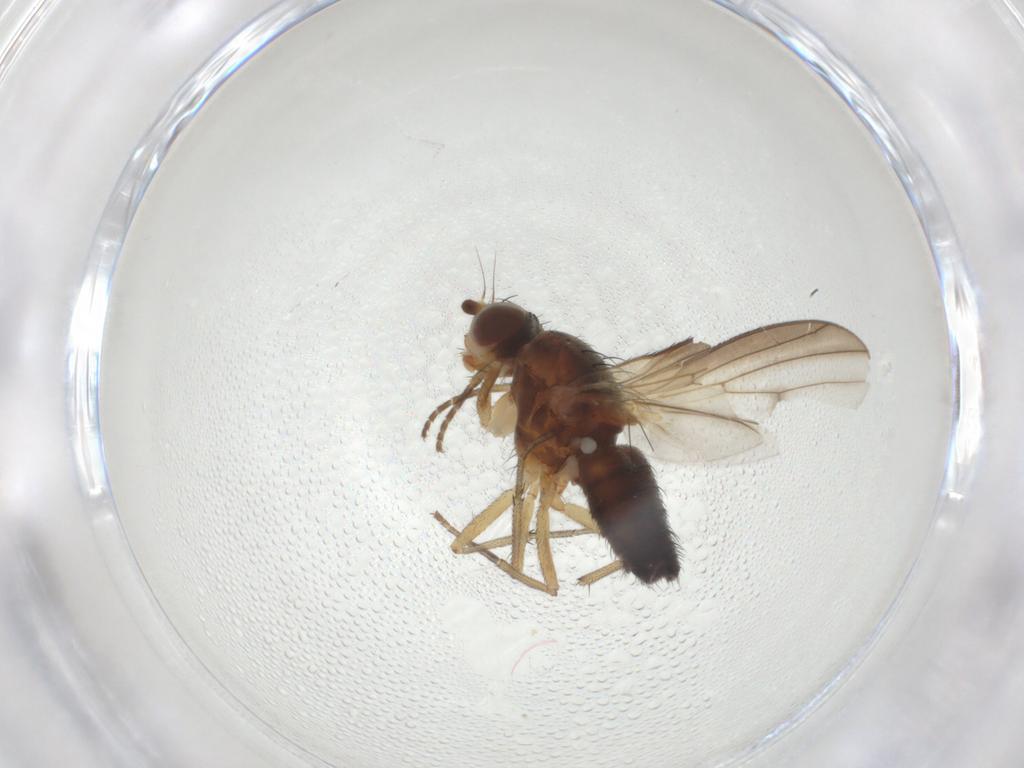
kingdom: Animalia
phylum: Arthropoda
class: Insecta
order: Diptera
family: Heleomyzidae
